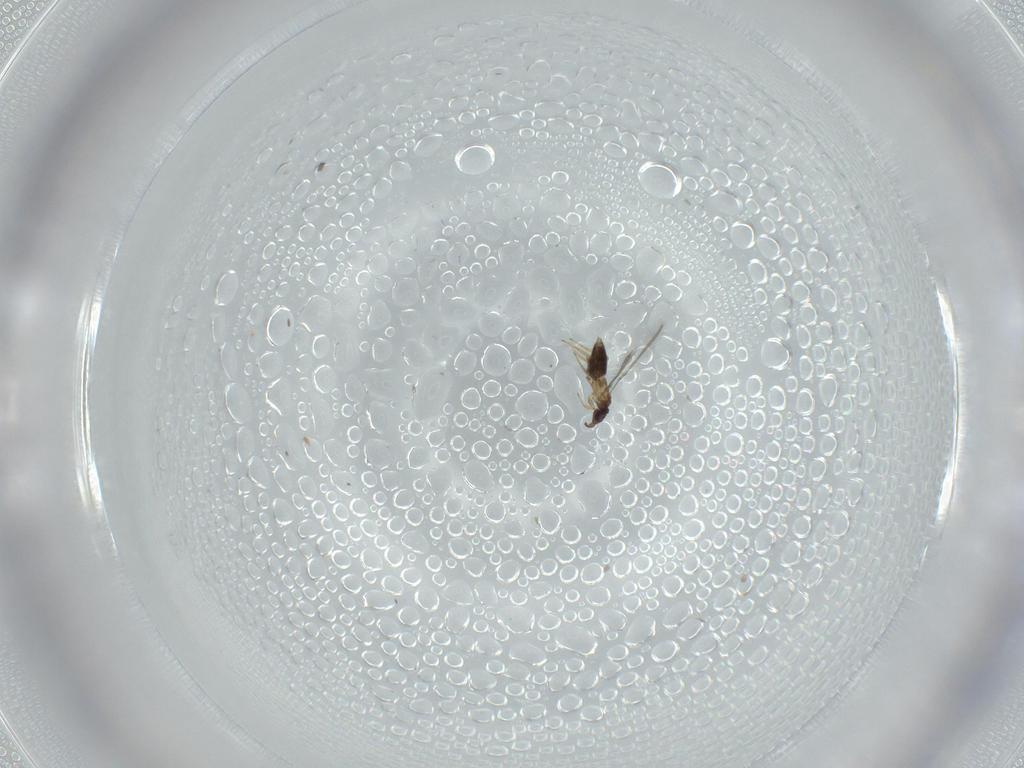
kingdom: Animalia
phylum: Arthropoda
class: Insecta
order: Hymenoptera
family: Mymaridae
